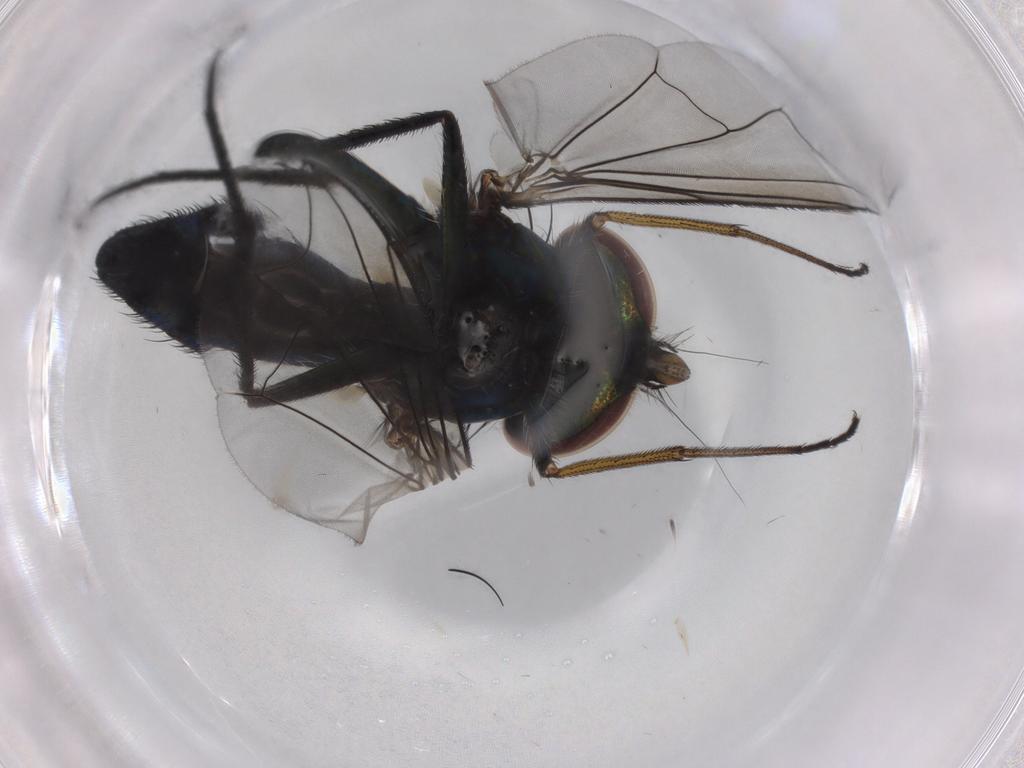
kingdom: Animalia
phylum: Arthropoda
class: Insecta
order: Diptera
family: Dolichopodidae
